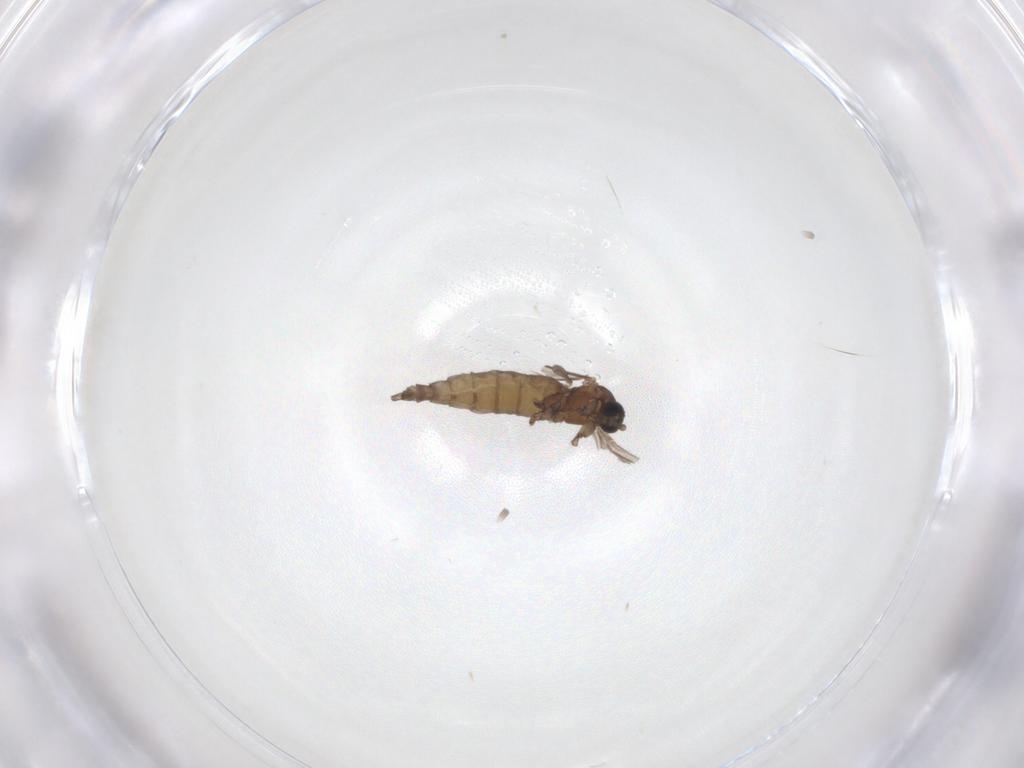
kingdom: Animalia
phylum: Arthropoda
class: Insecta
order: Diptera
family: Sciaridae
